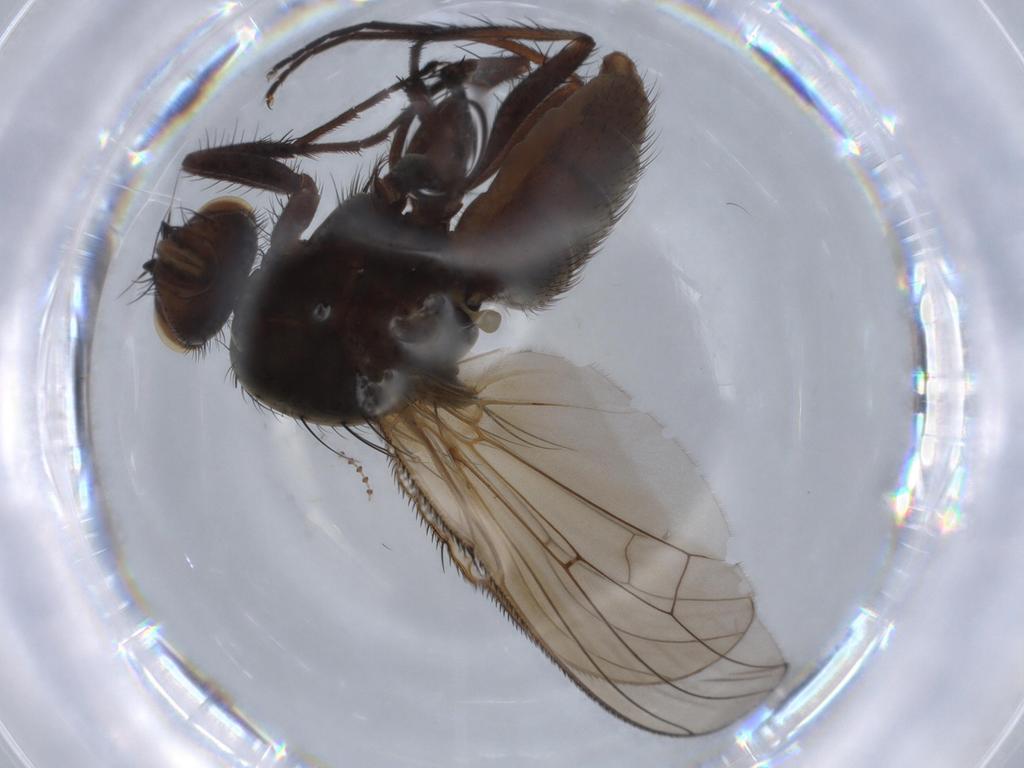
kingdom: Animalia
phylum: Arthropoda
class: Insecta
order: Diptera
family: Anthomyiidae
